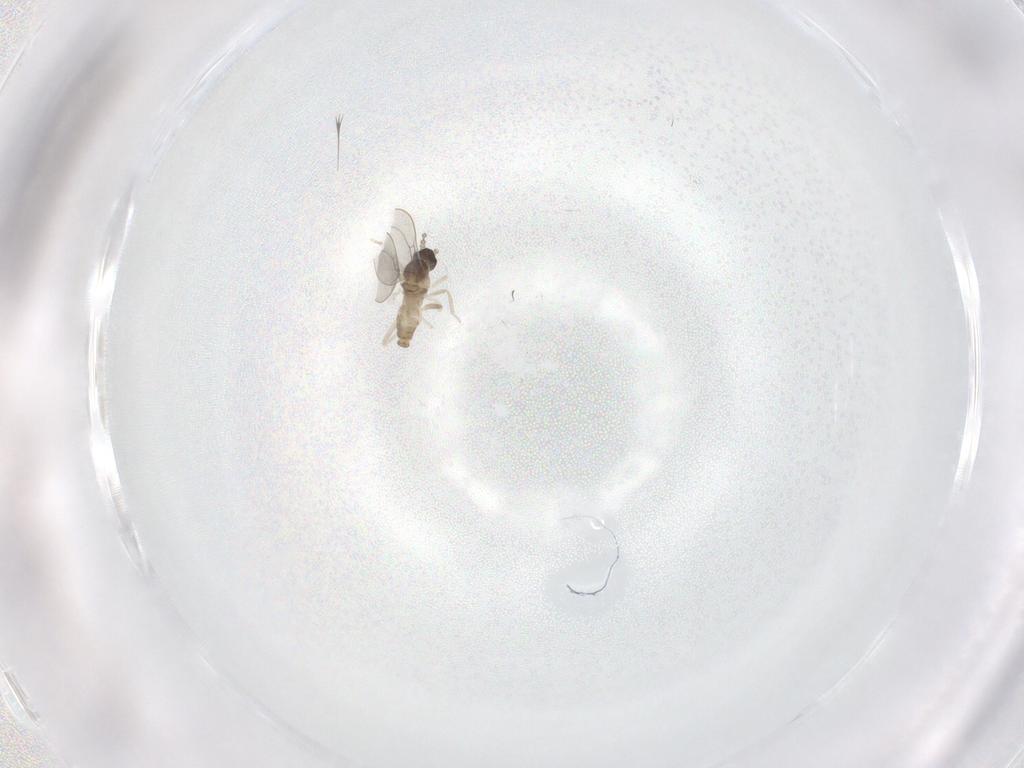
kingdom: Animalia
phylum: Arthropoda
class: Insecta
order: Diptera
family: Cecidomyiidae
